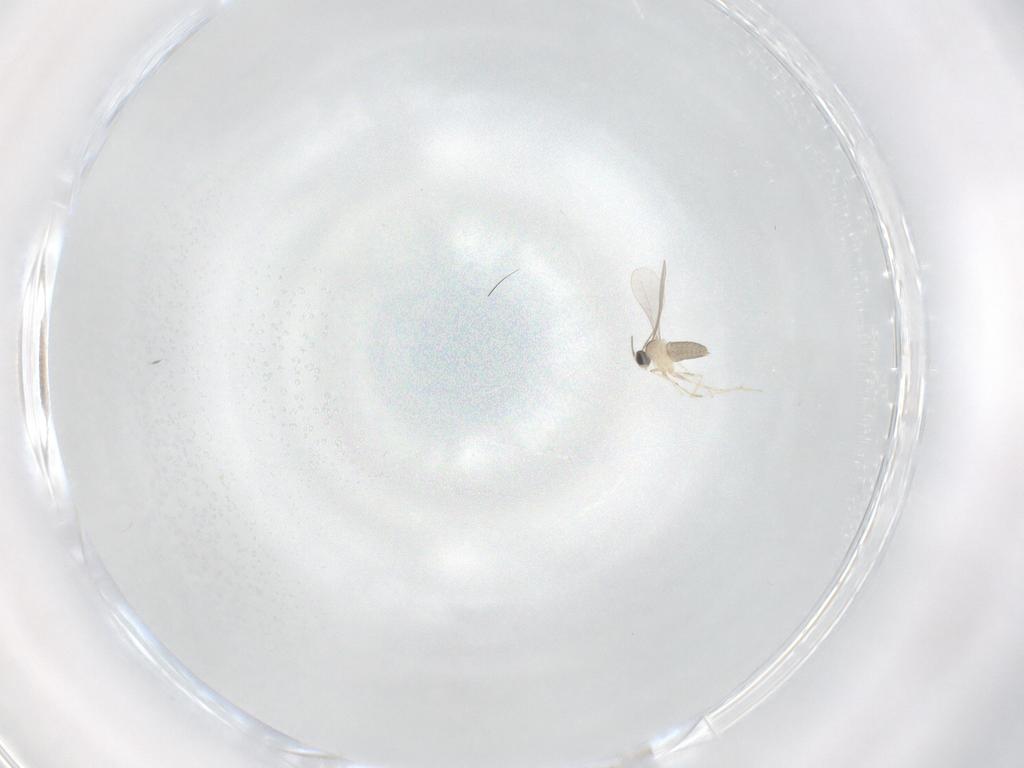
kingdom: Animalia
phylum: Arthropoda
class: Insecta
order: Diptera
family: Cecidomyiidae
